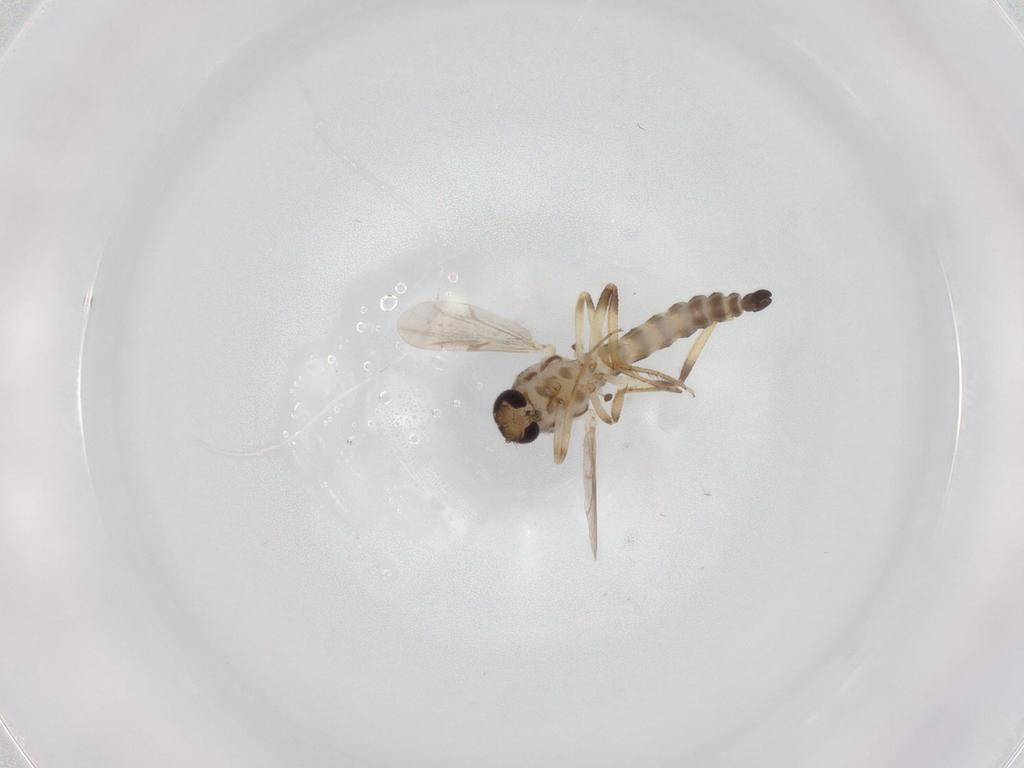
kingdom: Animalia
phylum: Arthropoda
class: Insecta
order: Diptera
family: Ceratopogonidae
